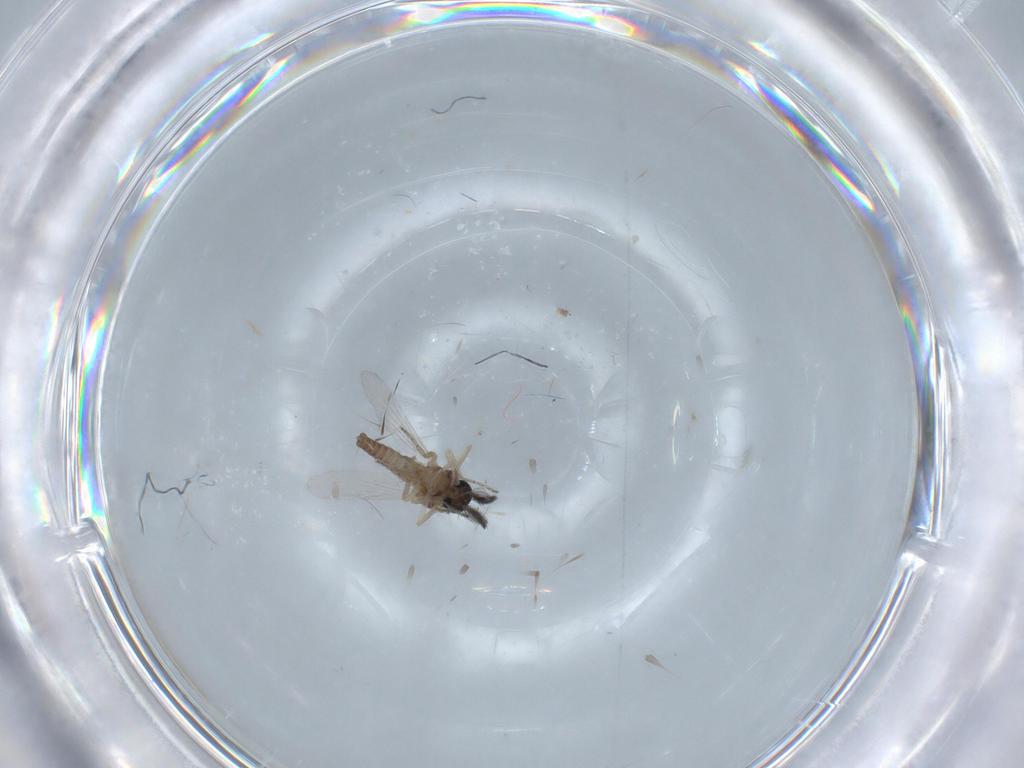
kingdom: Animalia
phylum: Arthropoda
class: Insecta
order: Diptera
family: Ceratopogonidae
